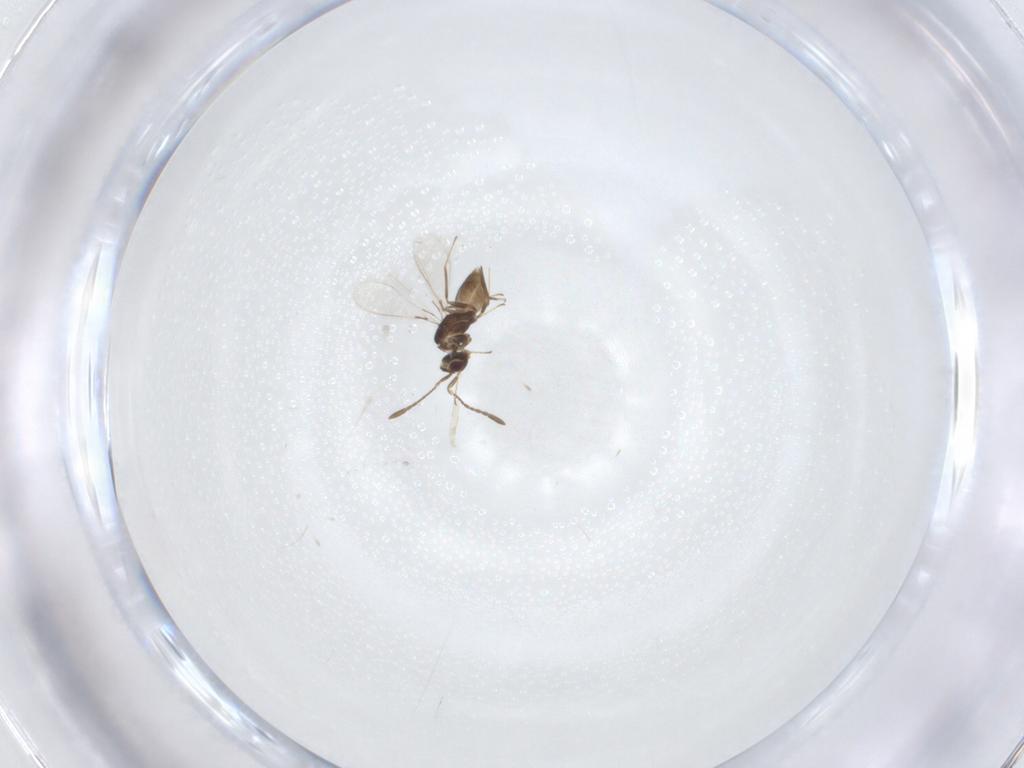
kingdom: Animalia
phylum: Arthropoda
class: Insecta
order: Hymenoptera
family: Mymaridae
